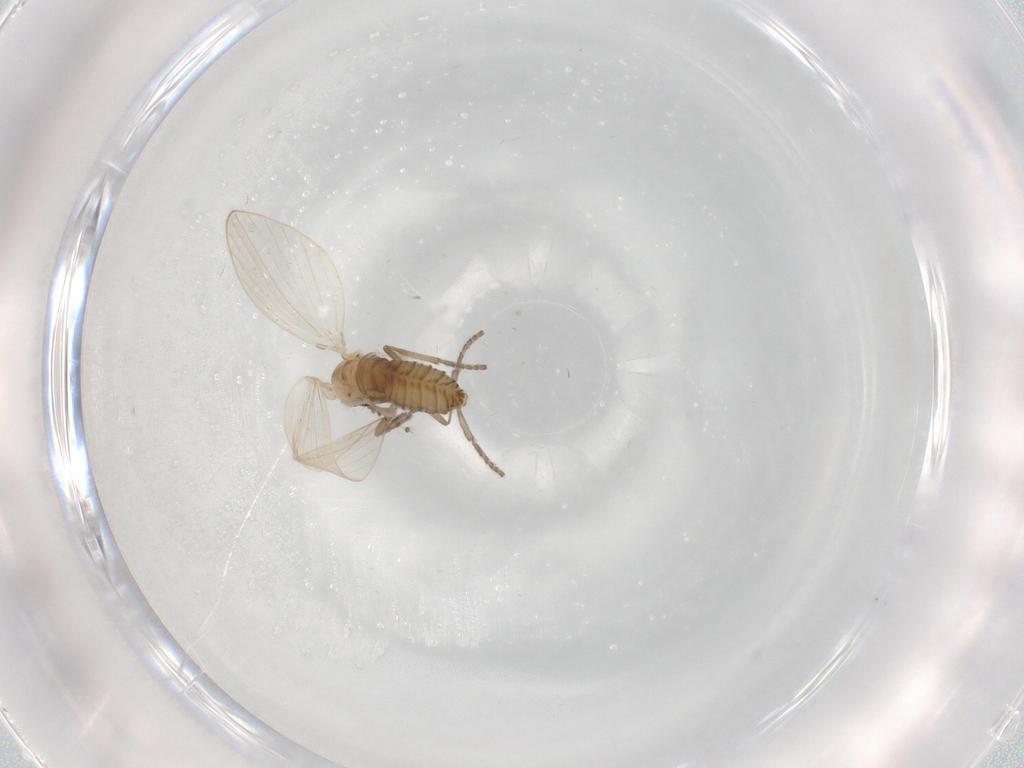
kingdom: Animalia
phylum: Arthropoda
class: Insecta
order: Diptera
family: Psychodidae
